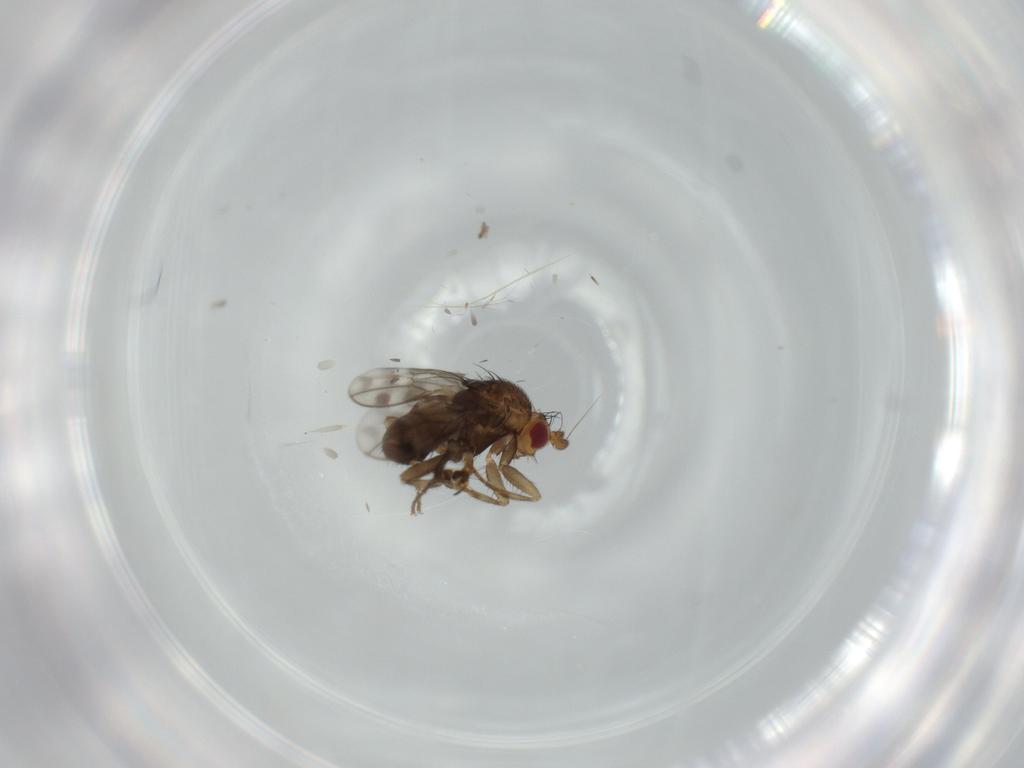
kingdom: Animalia
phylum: Arthropoda
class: Insecta
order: Diptera
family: Sphaeroceridae
